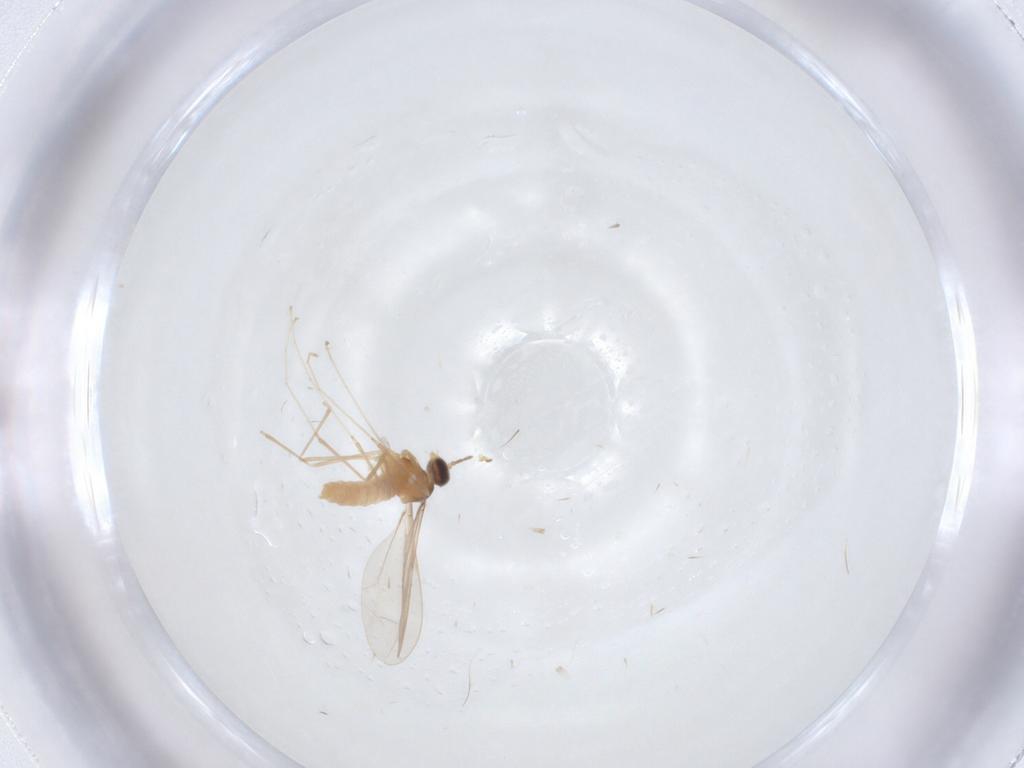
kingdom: Animalia
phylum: Arthropoda
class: Insecta
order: Diptera
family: Cecidomyiidae
